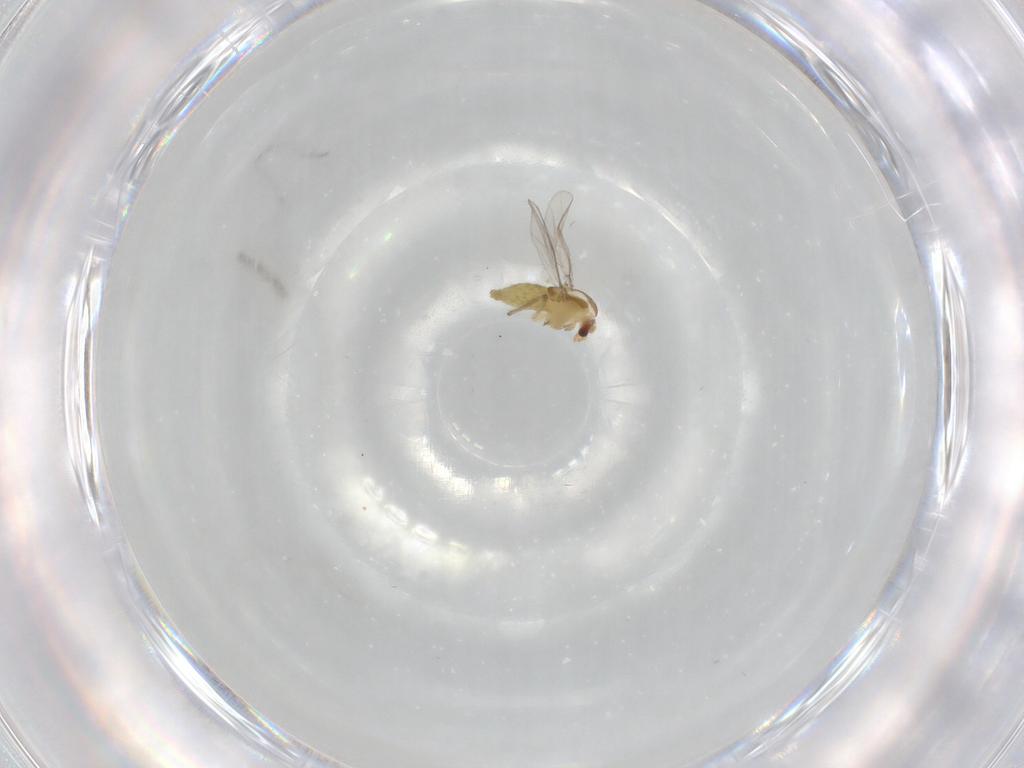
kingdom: Animalia
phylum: Arthropoda
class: Insecta
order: Diptera
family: Chironomidae
